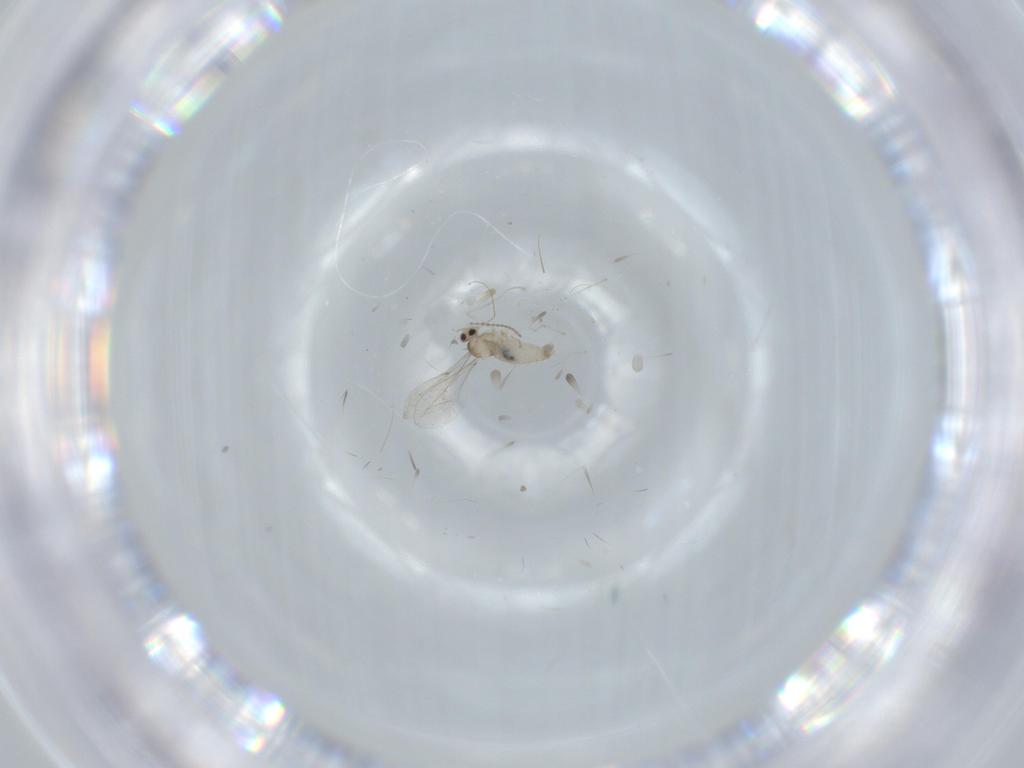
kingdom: Animalia
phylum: Arthropoda
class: Insecta
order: Diptera
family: Cecidomyiidae
